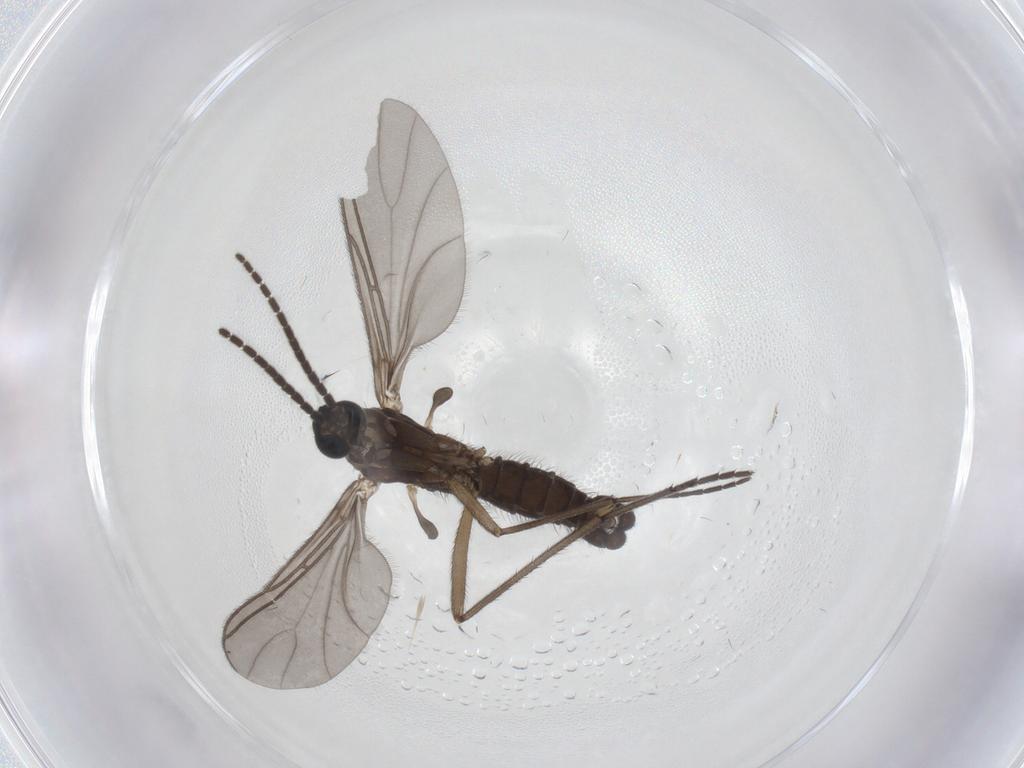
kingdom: Animalia
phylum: Arthropoda
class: Insecta
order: Diptera
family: Sciaridae
